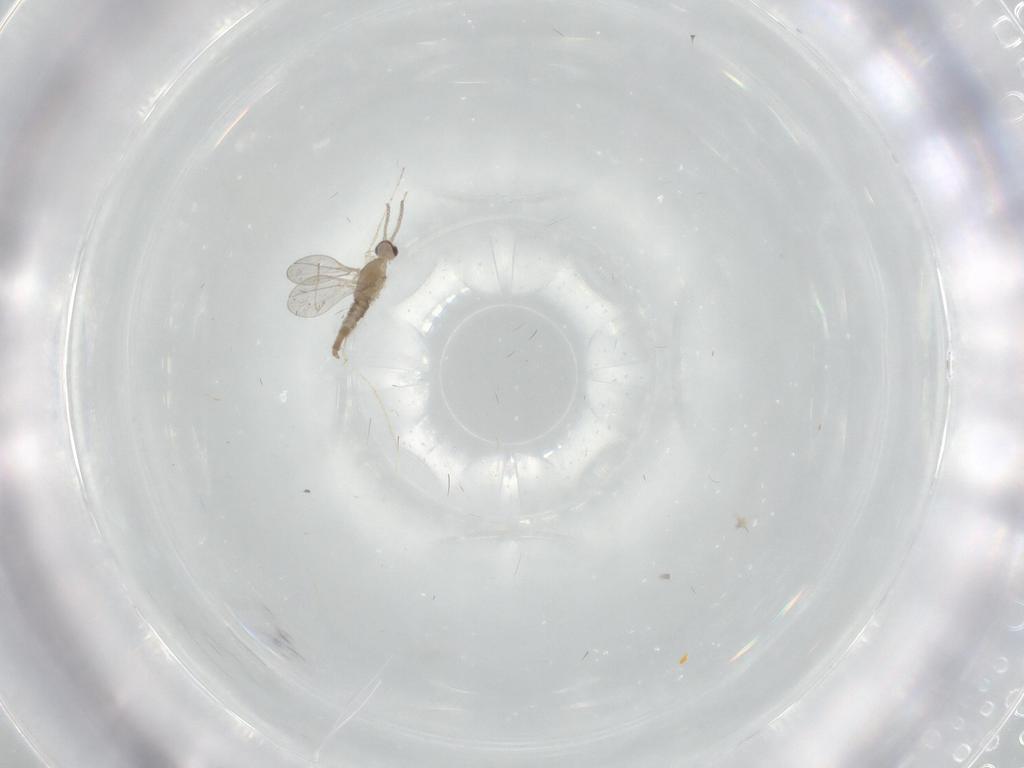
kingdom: Animalia
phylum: Arthropoda
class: Insecta
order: Diptera
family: Cecidomyiidae
